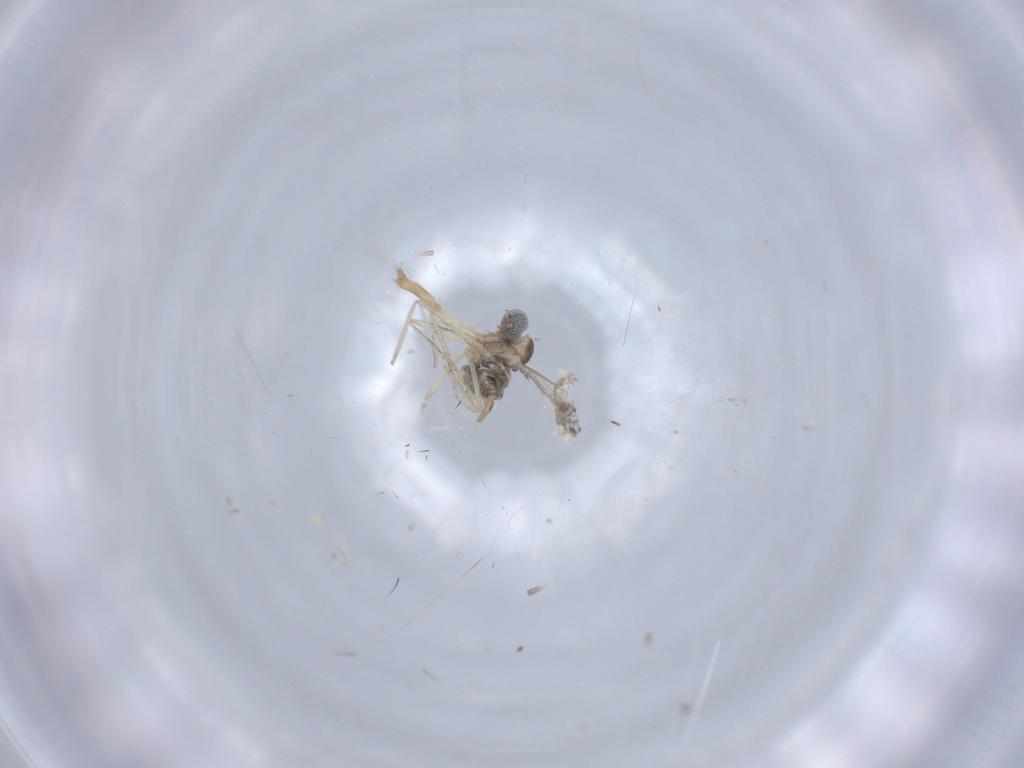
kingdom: Animalia
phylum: Arthropoda
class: Insecta
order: Diptera
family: Cecidomyiidae
